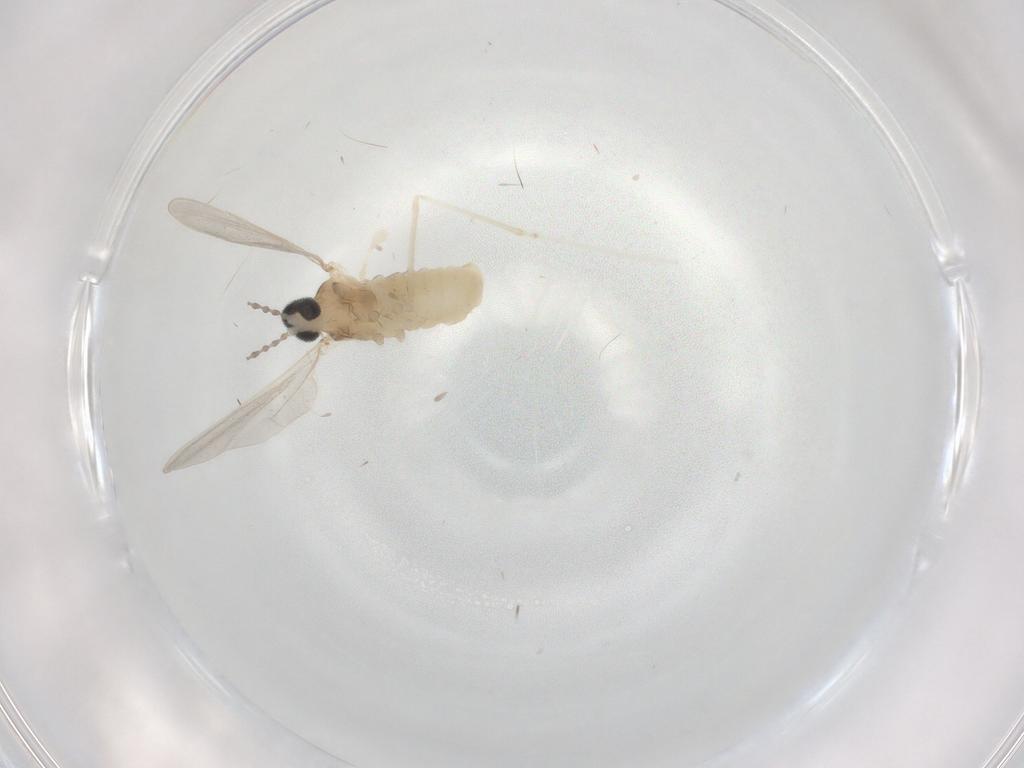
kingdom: Animalia
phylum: Arthropoda
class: Insecta
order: Diptera
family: Cecidomyiidae
